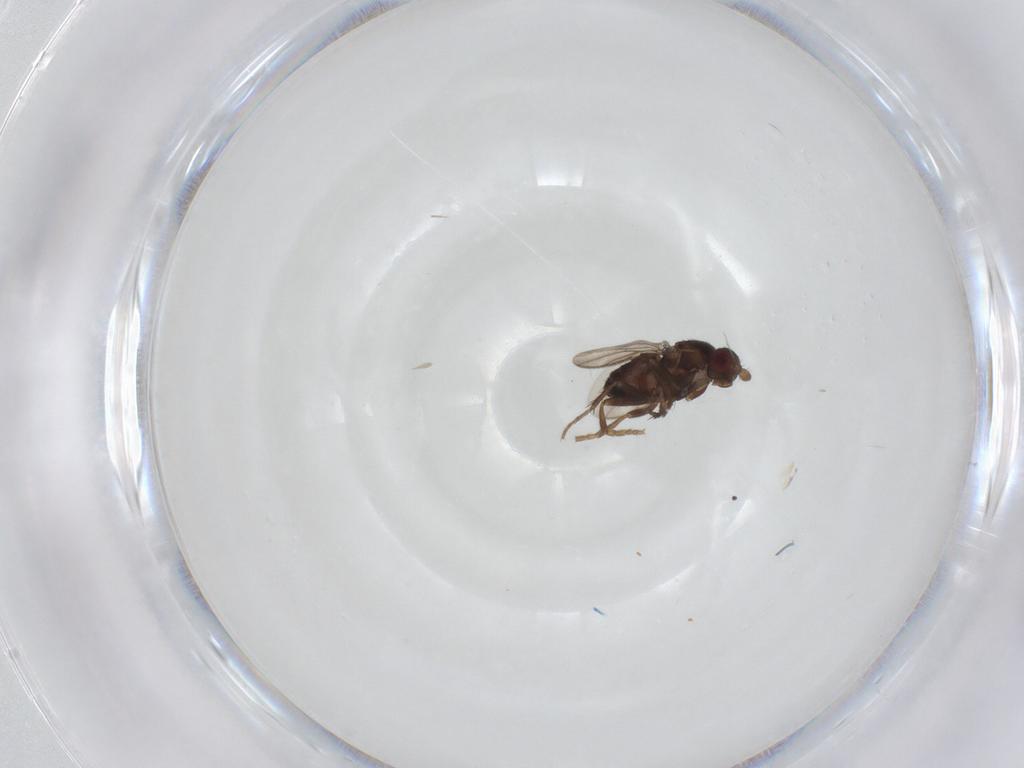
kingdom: Animalia
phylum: Arthropoda
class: Insecta
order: Diptera
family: Sphaeroceridae
